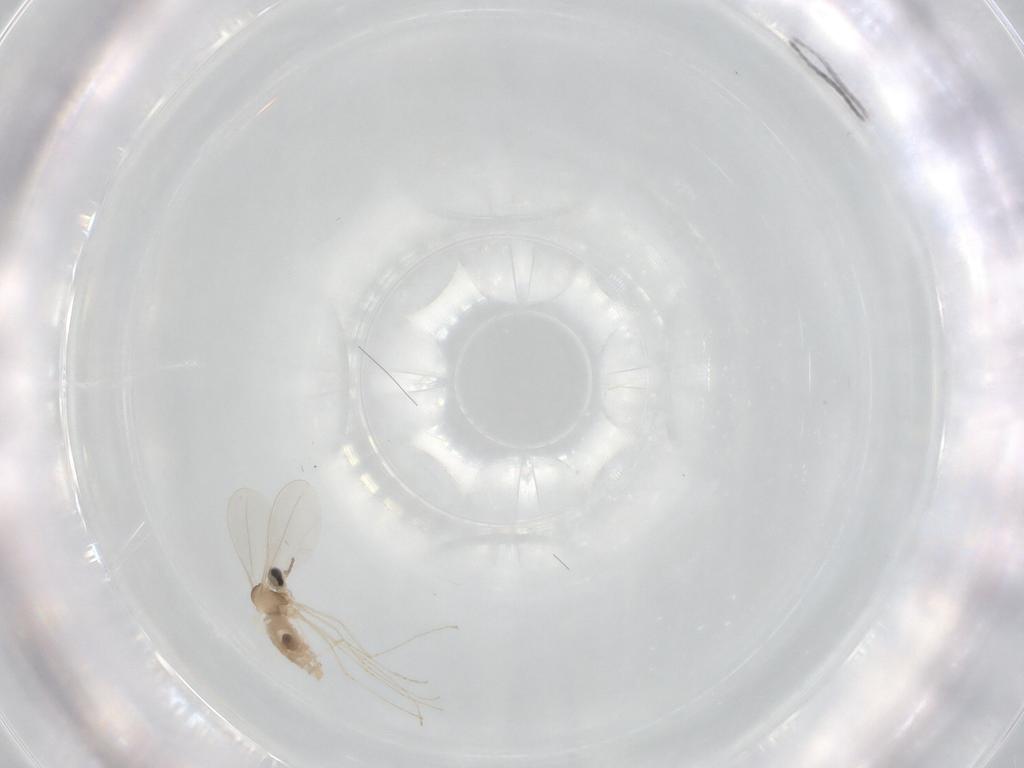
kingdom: Animalia
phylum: Arthropoda
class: Insecta
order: Diptera
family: Cecidomyiidae
